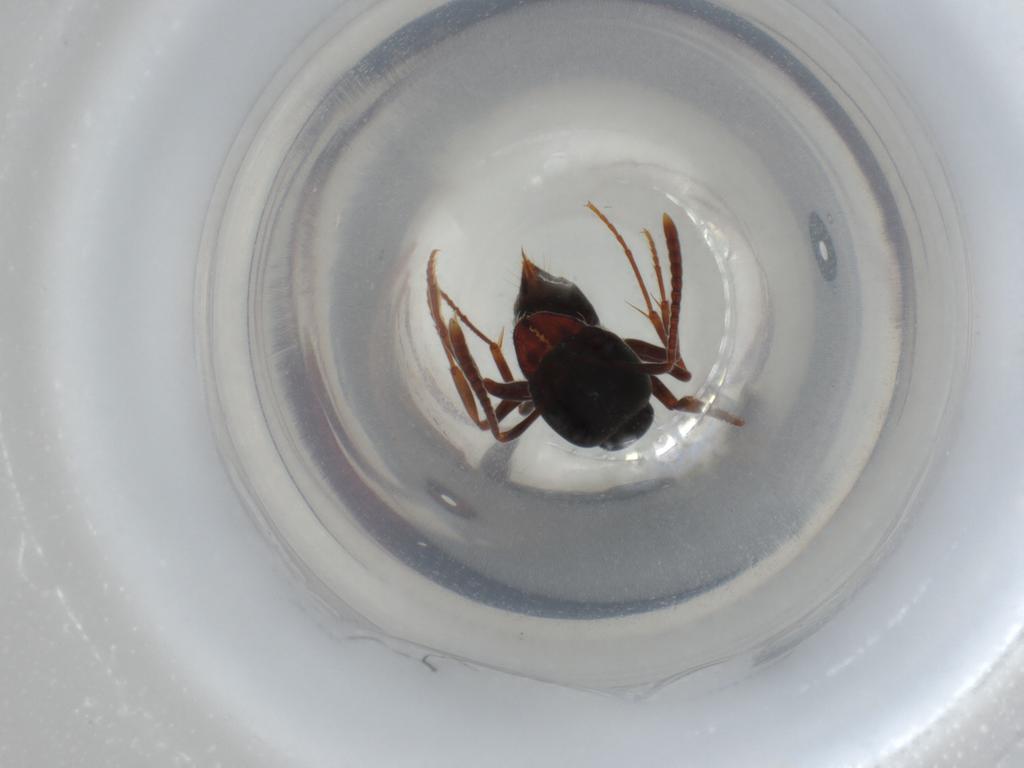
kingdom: Animalia
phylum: Arthropoda
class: Insecta
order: Hymenoptera
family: Formicidae
